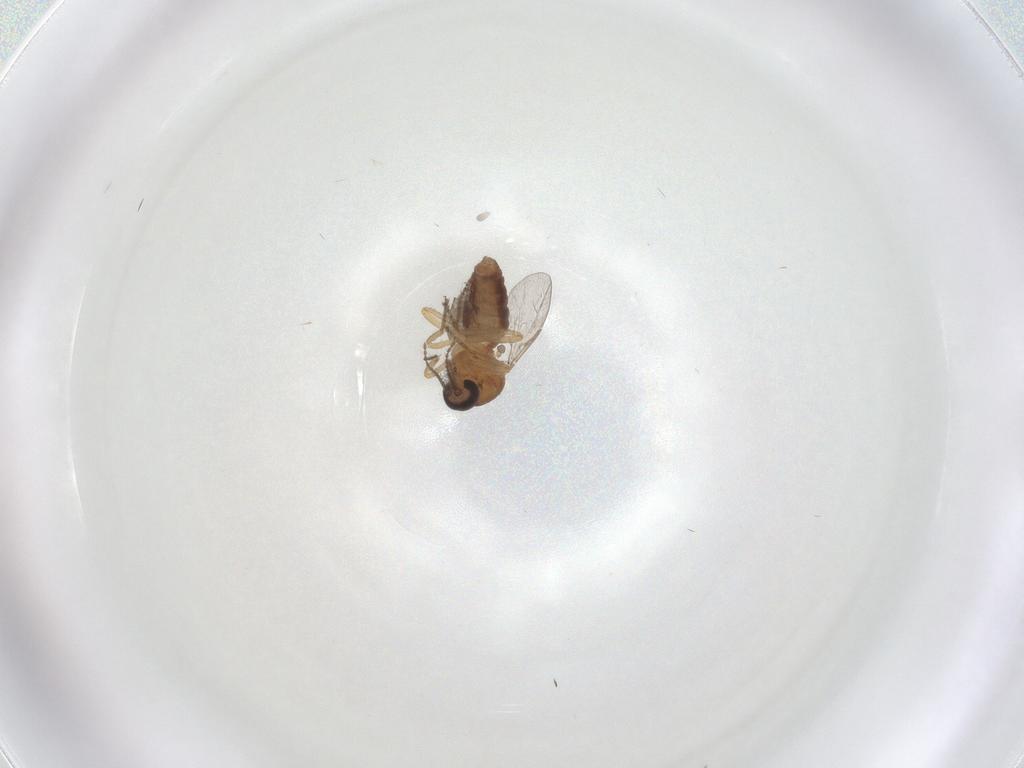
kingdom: Animalia
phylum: Arthropoda
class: Insecta
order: Diptera
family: Ceratopogonidae
